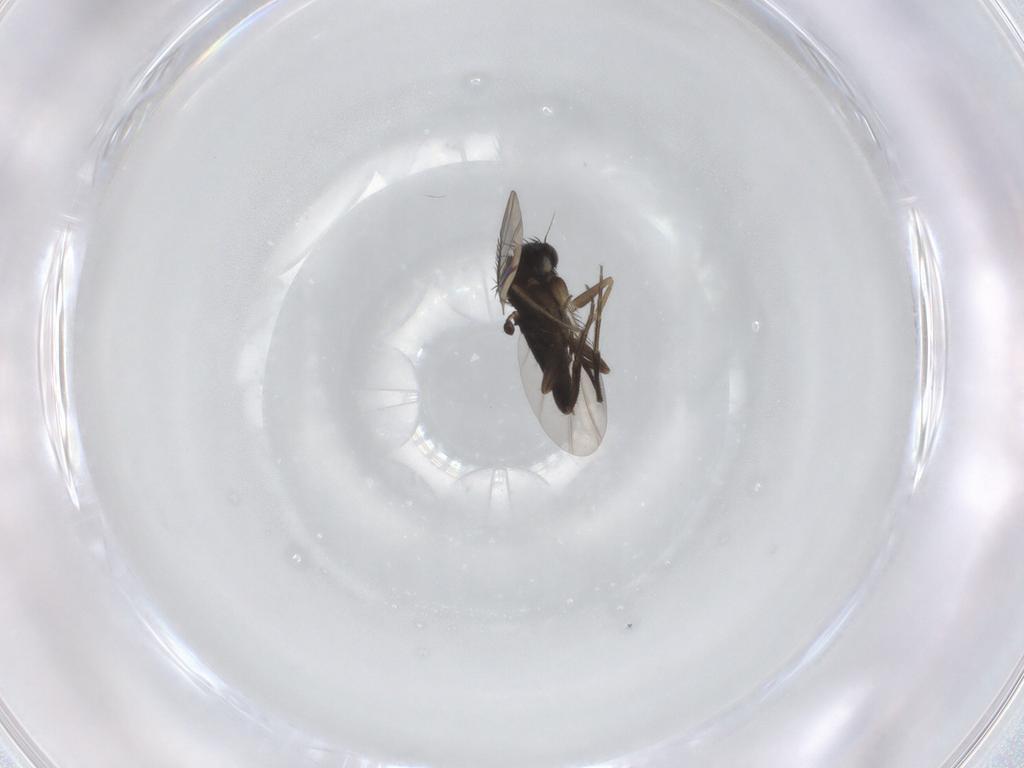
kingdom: Animalia
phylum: Arthropoda
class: Insecta
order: Diptera
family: Phoridae
